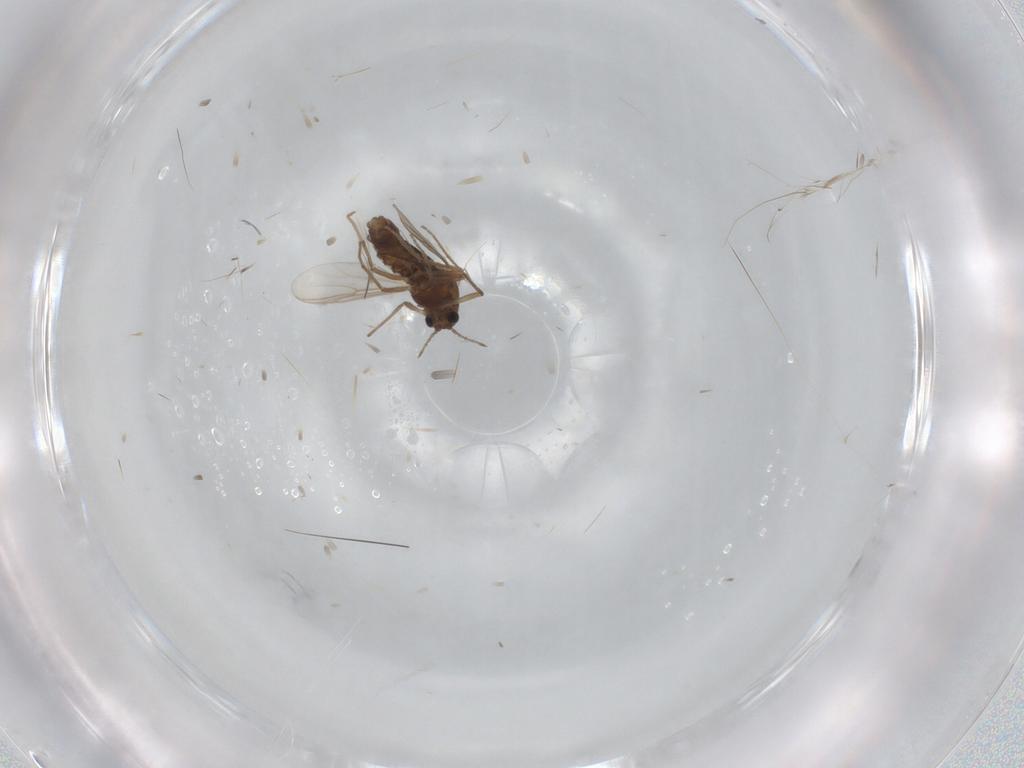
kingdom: Animalia
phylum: Arthropoda
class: Insecta
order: Diptera
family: Chironomidae
